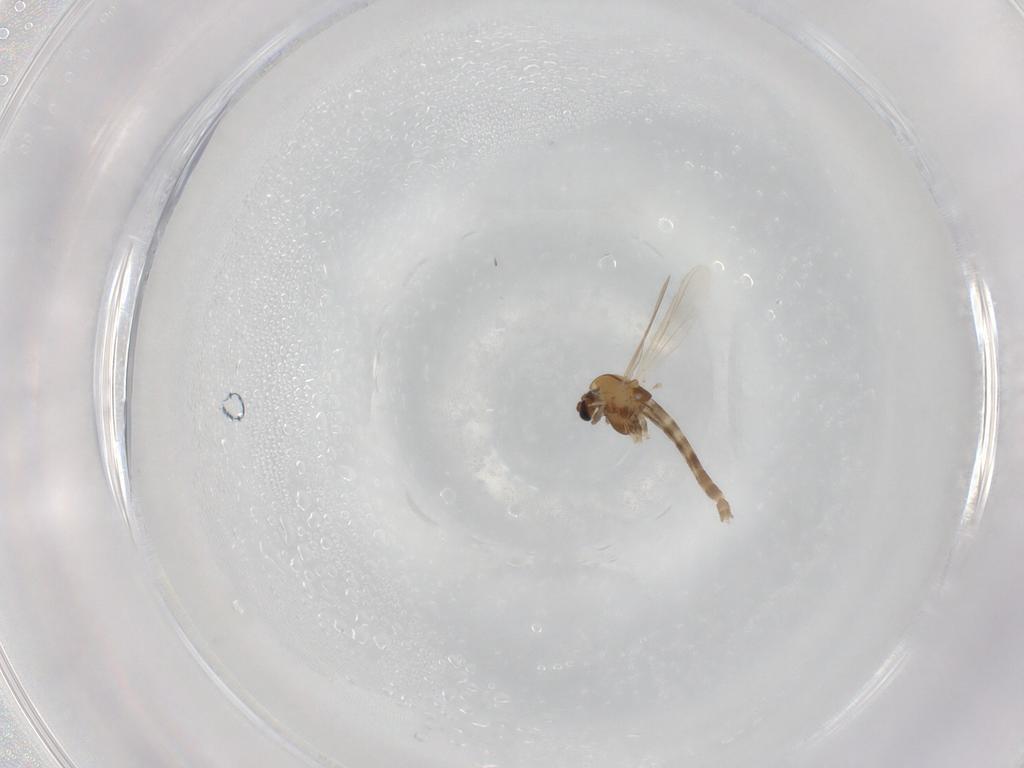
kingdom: Animalia
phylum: Arthropoda
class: Insecta
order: Diptera
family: Chironomidae
